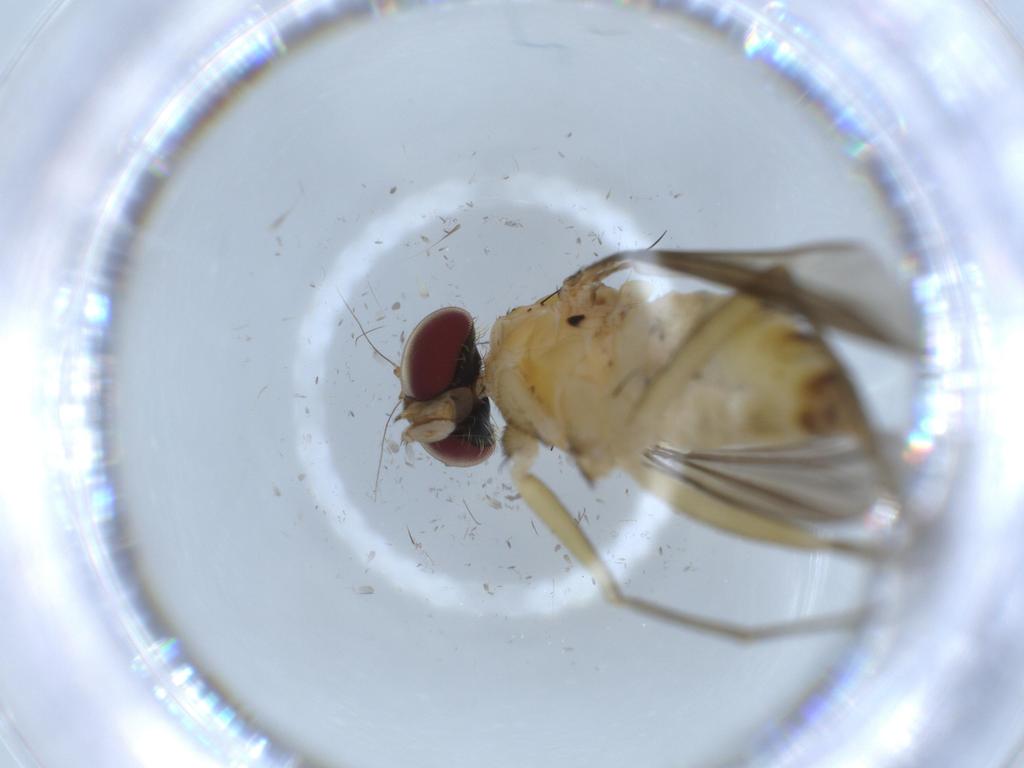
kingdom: Animalia
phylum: Arthropoda
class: Insecta
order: Diptera
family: Dolichopodidae
